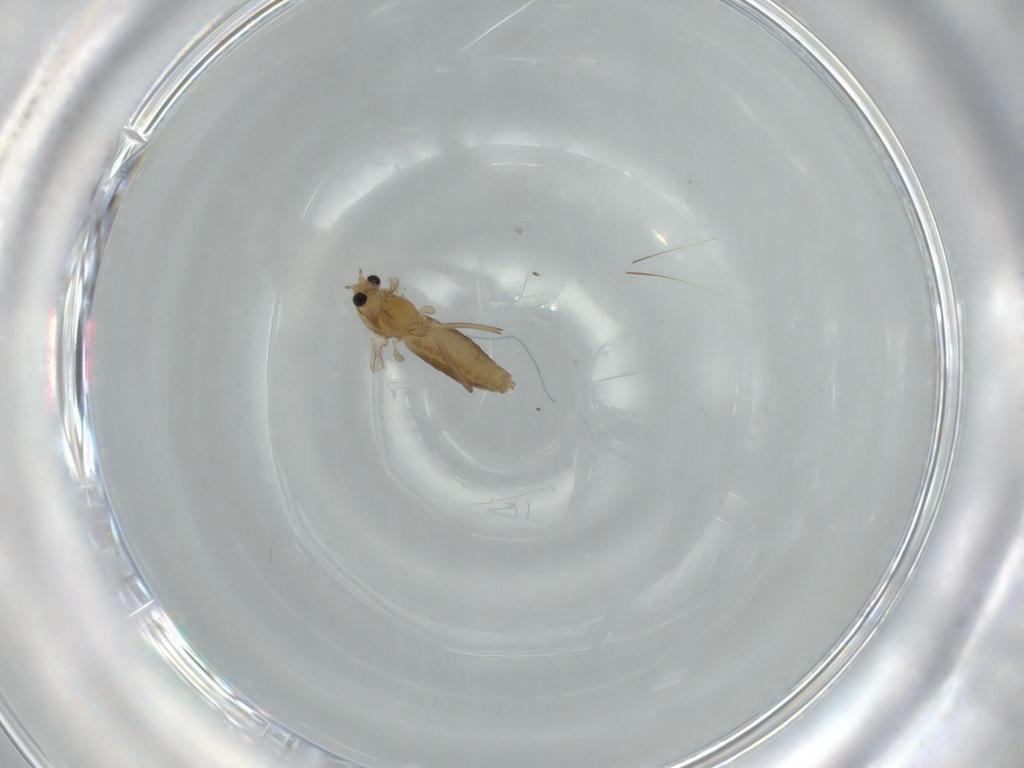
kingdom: Animalia
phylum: Arthropoda
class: Insecta
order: Diptera
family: Chironomidae
